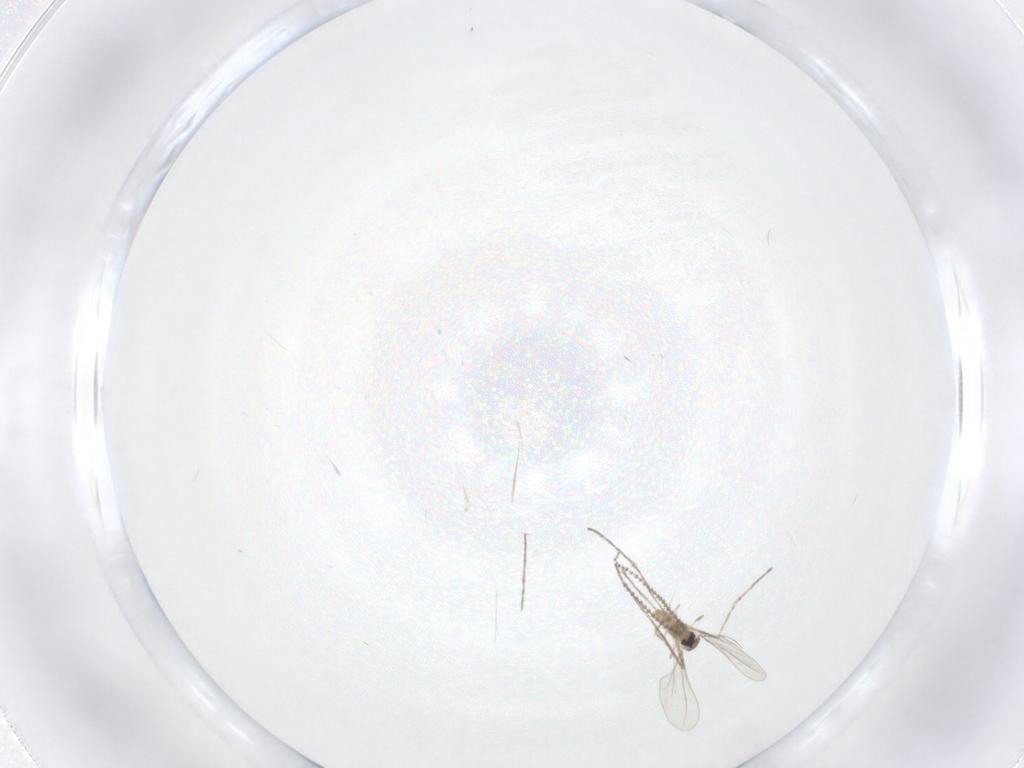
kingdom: Animalia
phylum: Arthropoda
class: Insecta
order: Diptera
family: Cecidomyiidae
